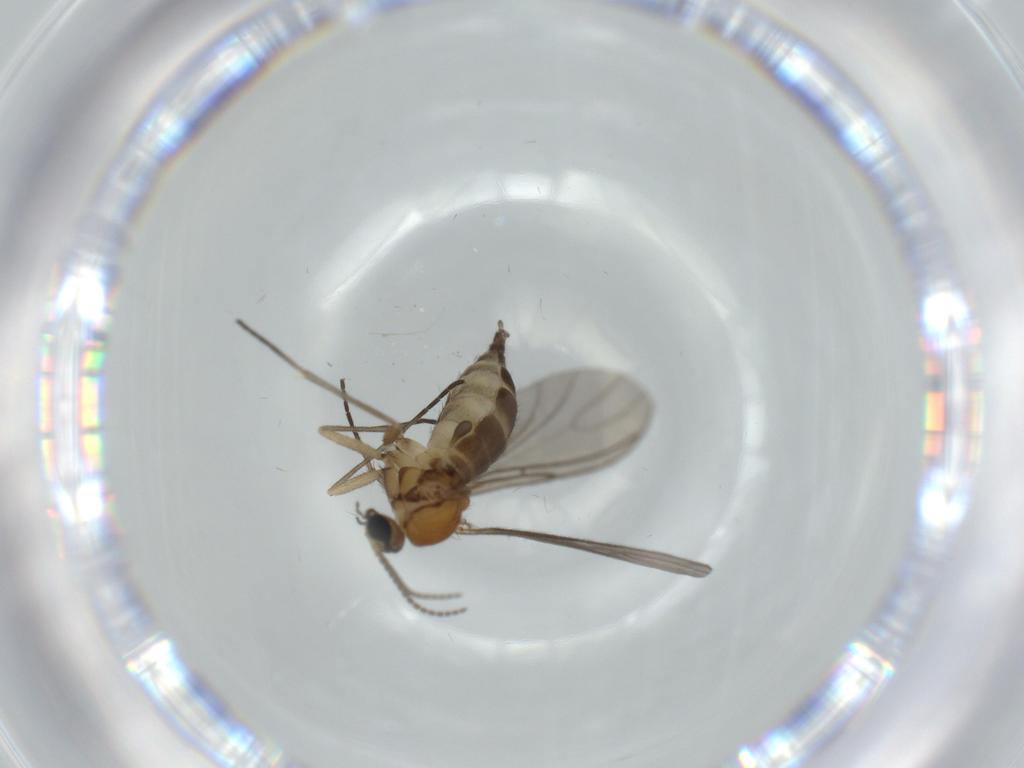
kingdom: Animalia
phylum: Arthropoda
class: Insecta
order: Diptera
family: Sciaridae
